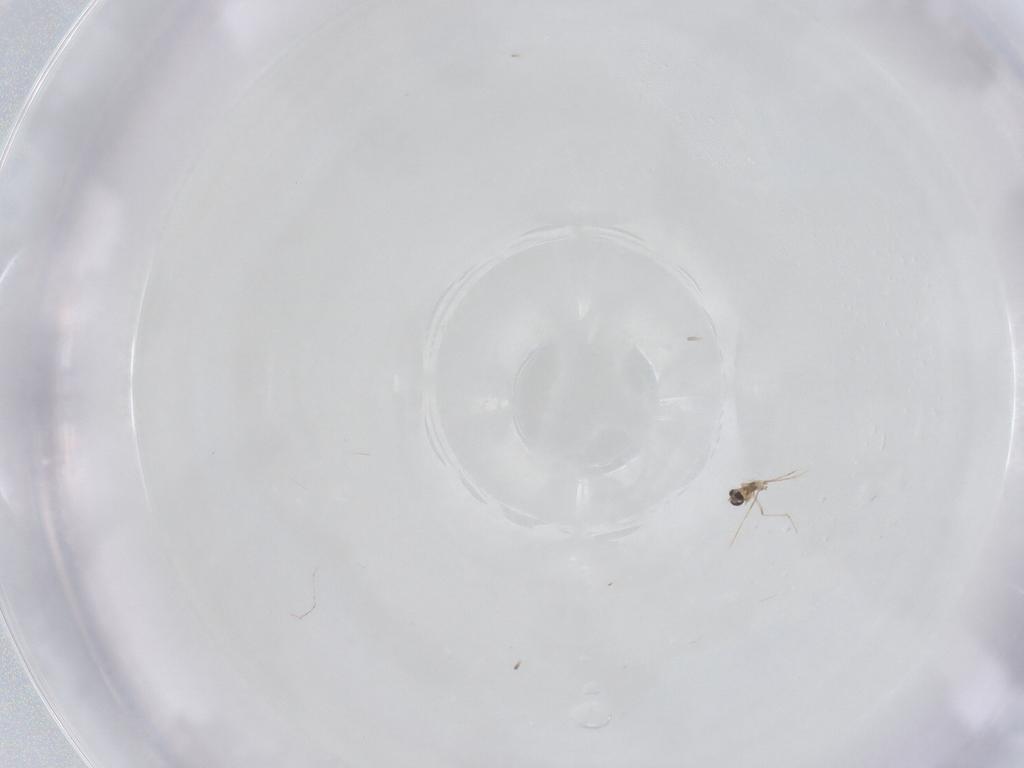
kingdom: Animalia
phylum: Arthropoda
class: Insecta
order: Diptera
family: Cecidomyiidae
